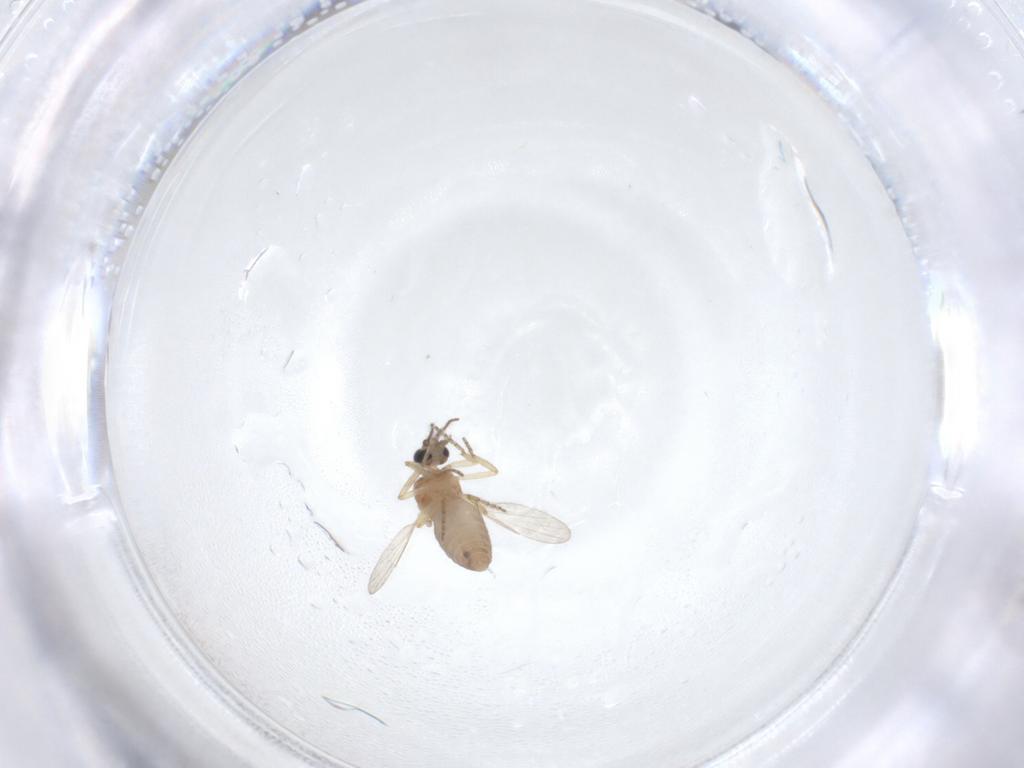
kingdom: Animalia
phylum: Arthropoda
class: Insecta
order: Diptera
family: Ceratopogonidae
